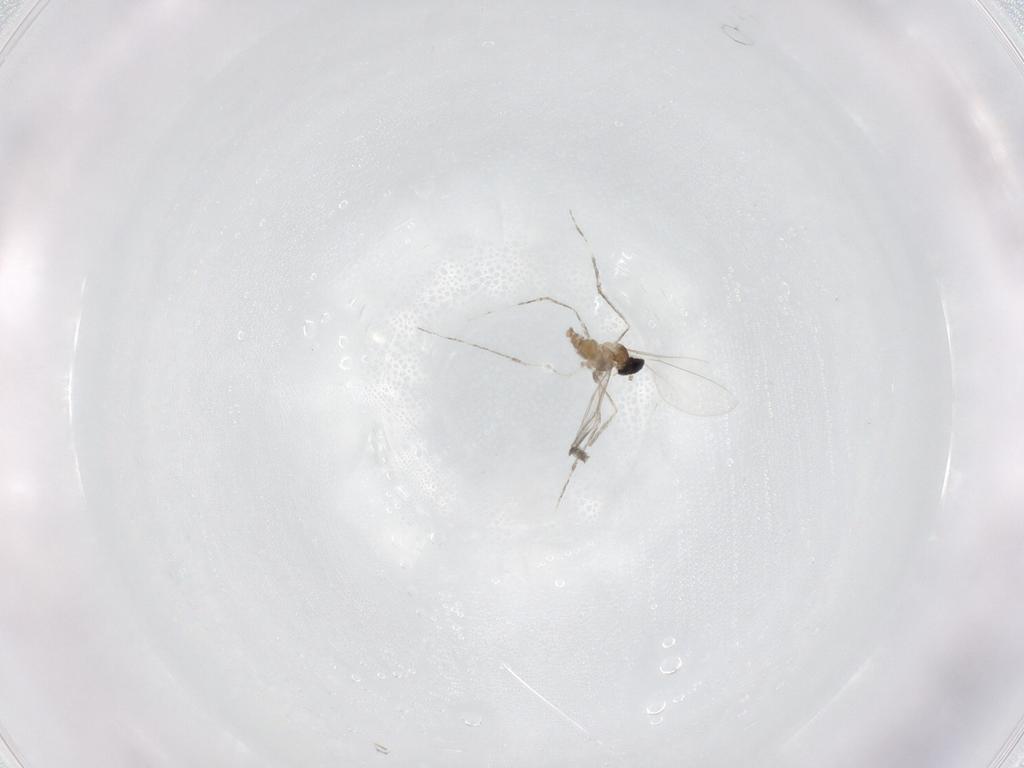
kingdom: Animalia
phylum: Arthropoda
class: Insecta
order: Diptera
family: Cecidomyiidae
